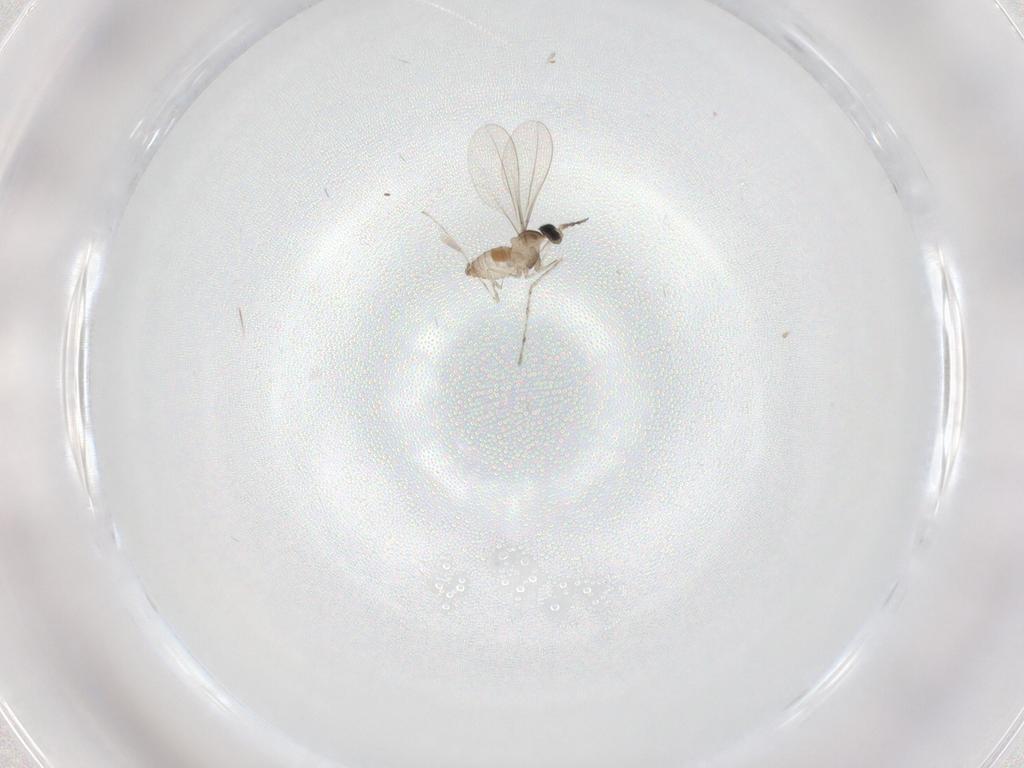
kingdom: Animalia
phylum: Arthropoda
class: Insecta
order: Diptera
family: Cecidomyiidae
